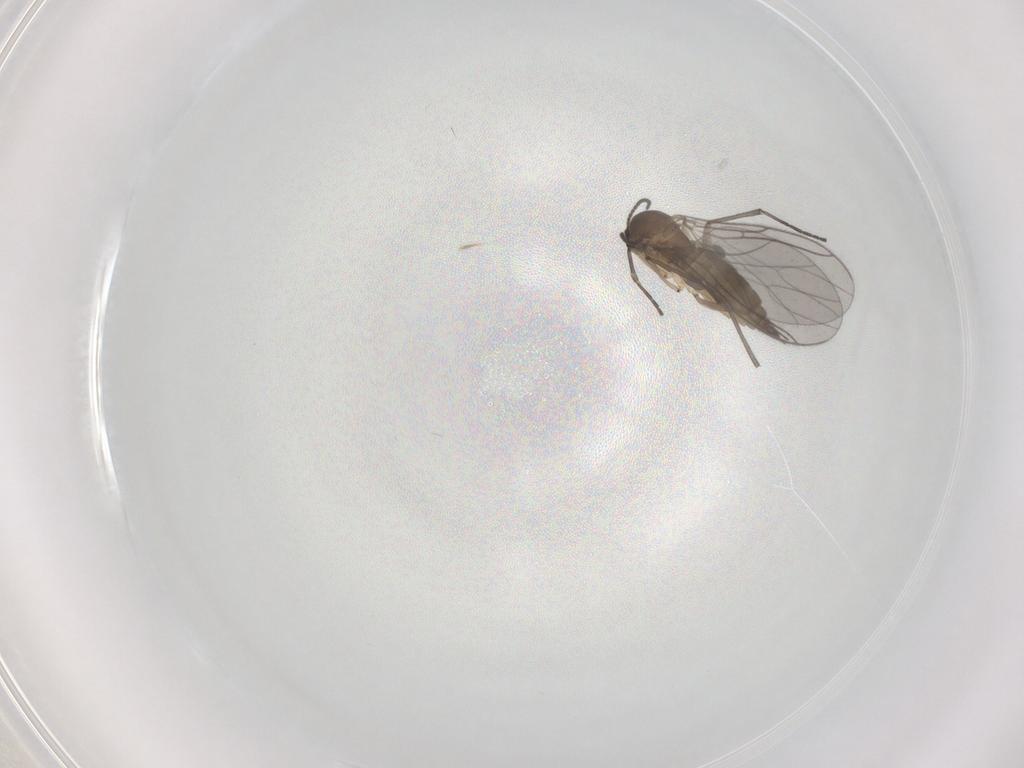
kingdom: Animalia
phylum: Arthropoda
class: Insecta
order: Diptera
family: Sciaridae
